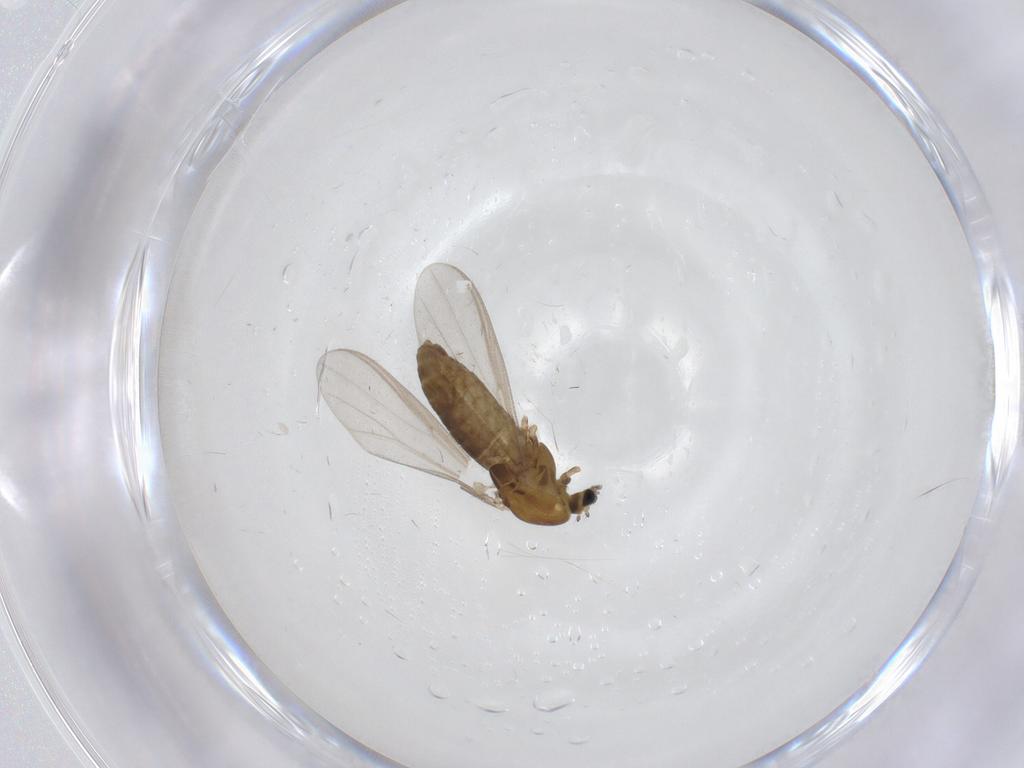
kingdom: Animalia
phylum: Arthropoda
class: Insecta
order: Diptera
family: Chironomidae
